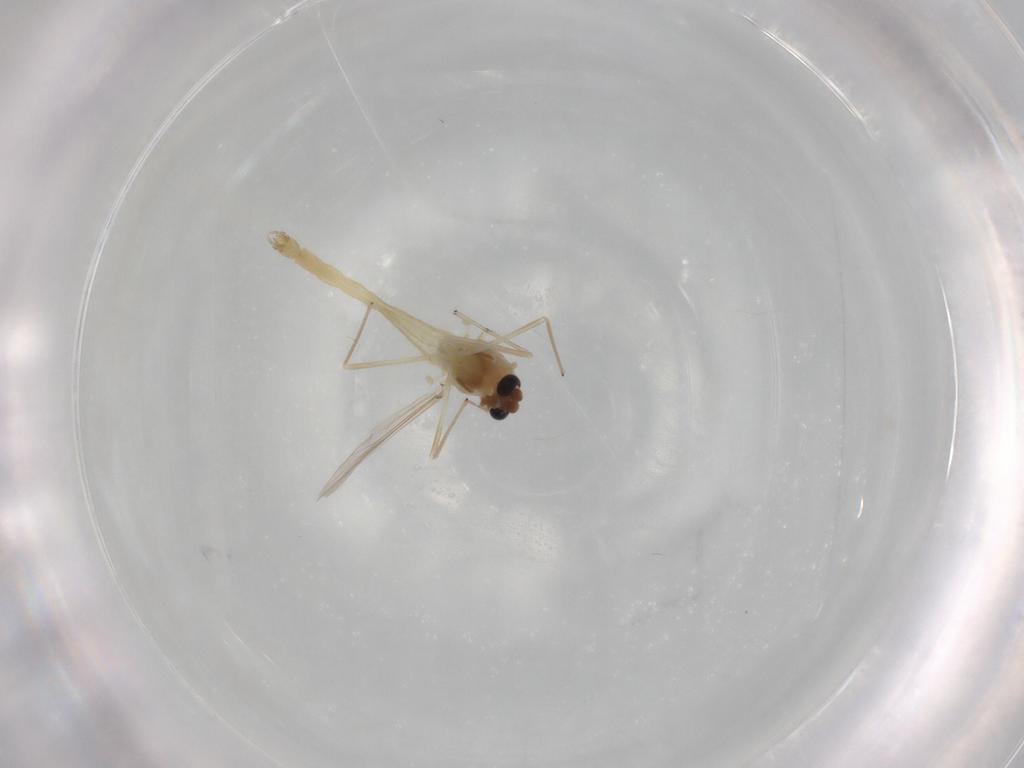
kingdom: Animalia
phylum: Arthropoda
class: Insecta
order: Diptera
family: Chironomidae
